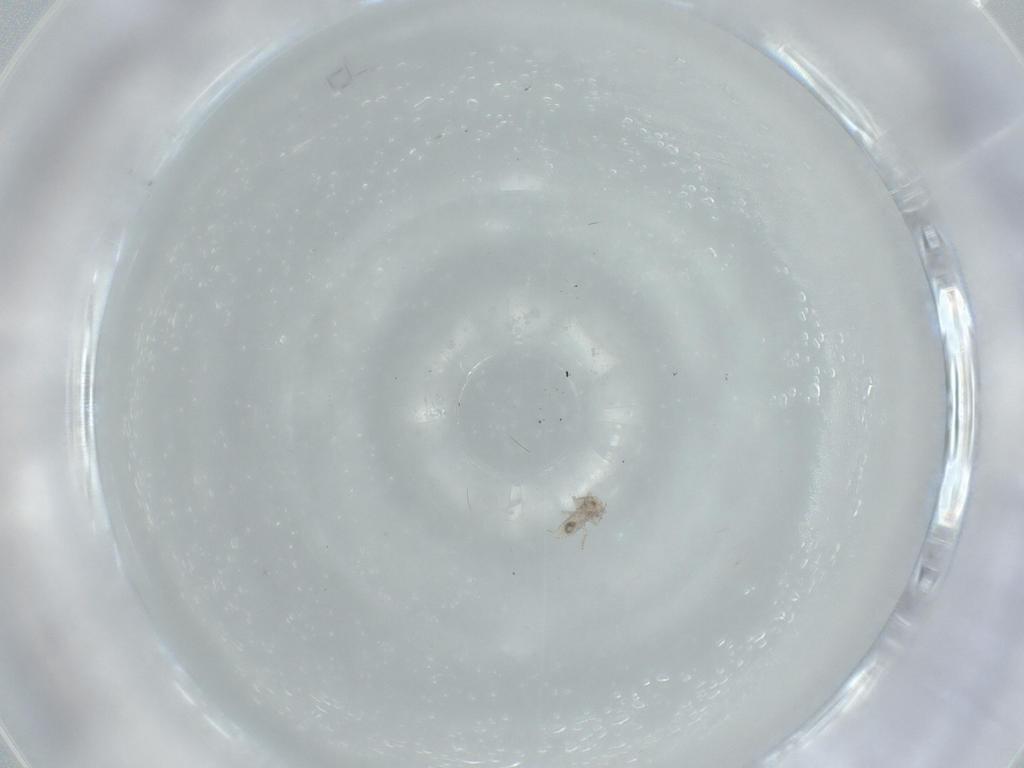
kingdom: Animalia
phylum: Arthropoda
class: Insecta
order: Psocodea
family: Caeciliusidae
